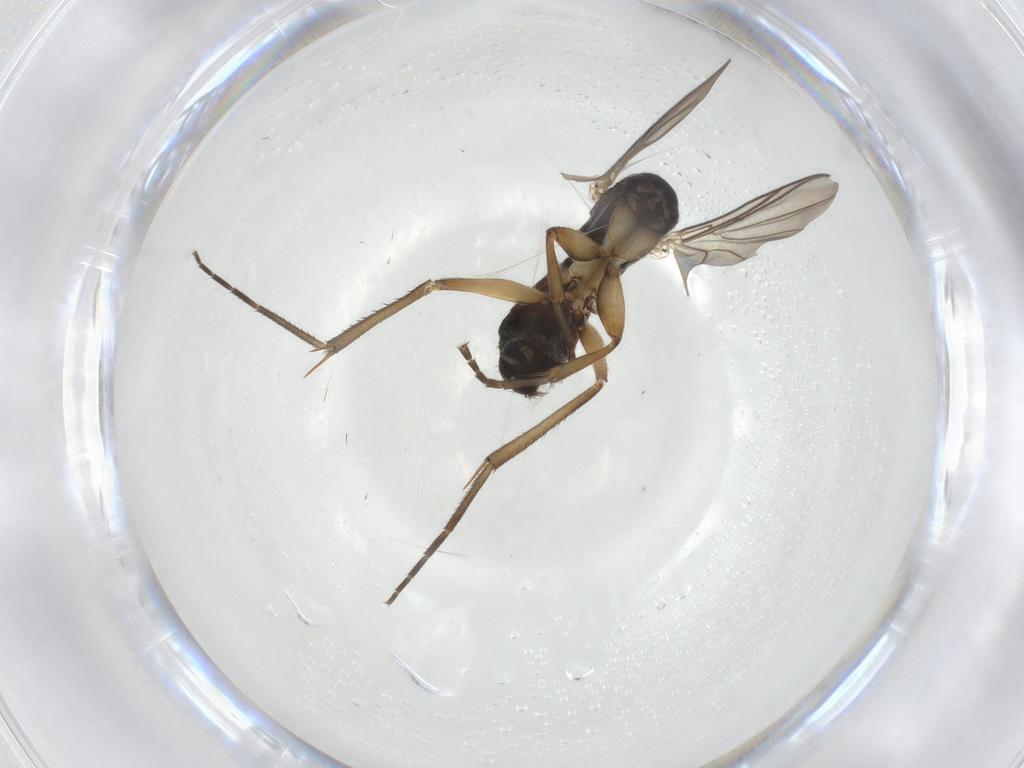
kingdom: Animalia
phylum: Arthropoda
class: Insecta
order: Diptera
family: Mycetophilidae
